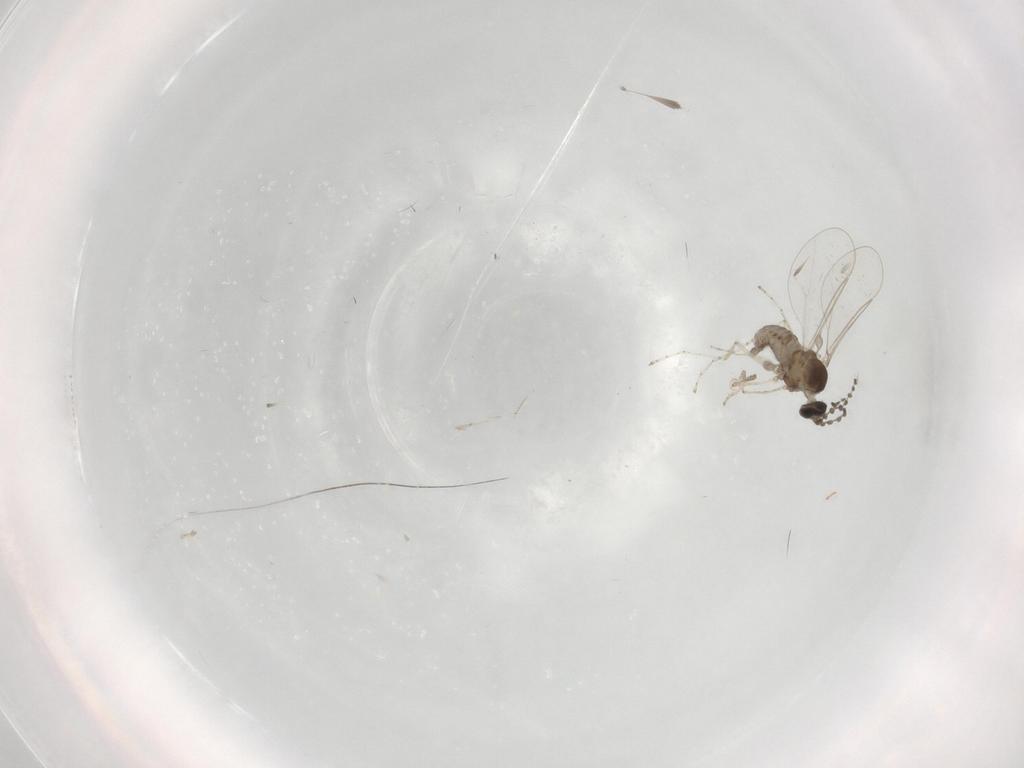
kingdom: Animalia
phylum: Arthropoda
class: Insecta
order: Diptera
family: Cecidomyiidae
